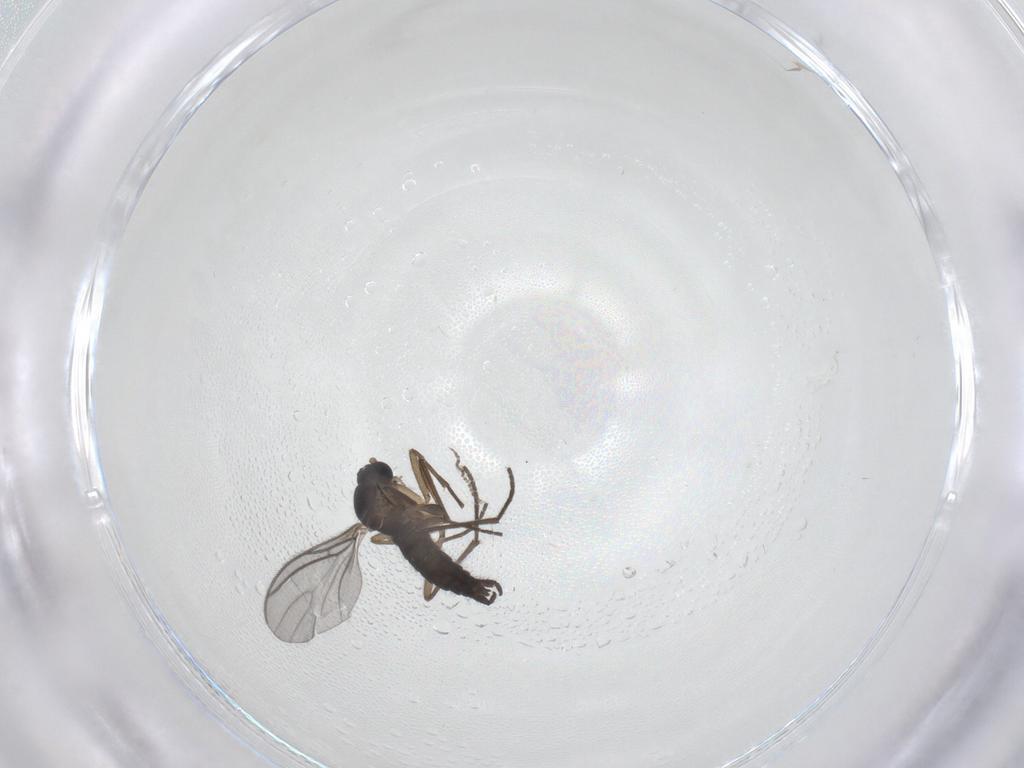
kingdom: Animalia
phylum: Arthropoda
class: Insecta
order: Diptera
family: Sciaridae
